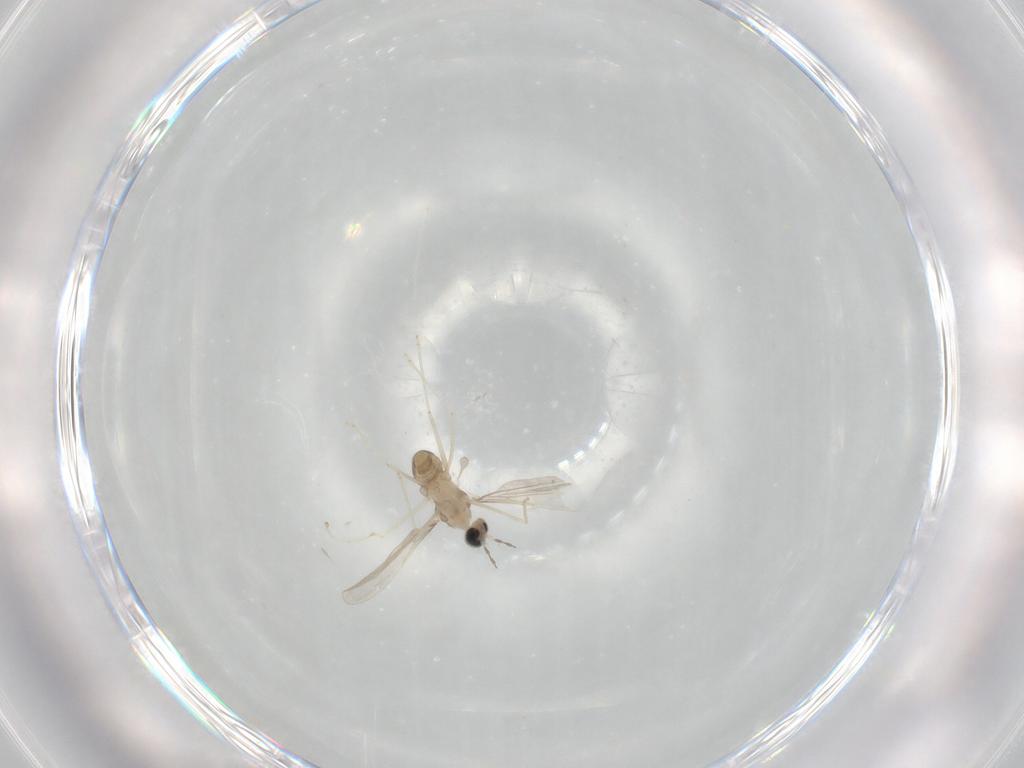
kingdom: Animalia
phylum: Arthropoda
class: Insecta
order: Diptera
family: Cecidomyiidae
